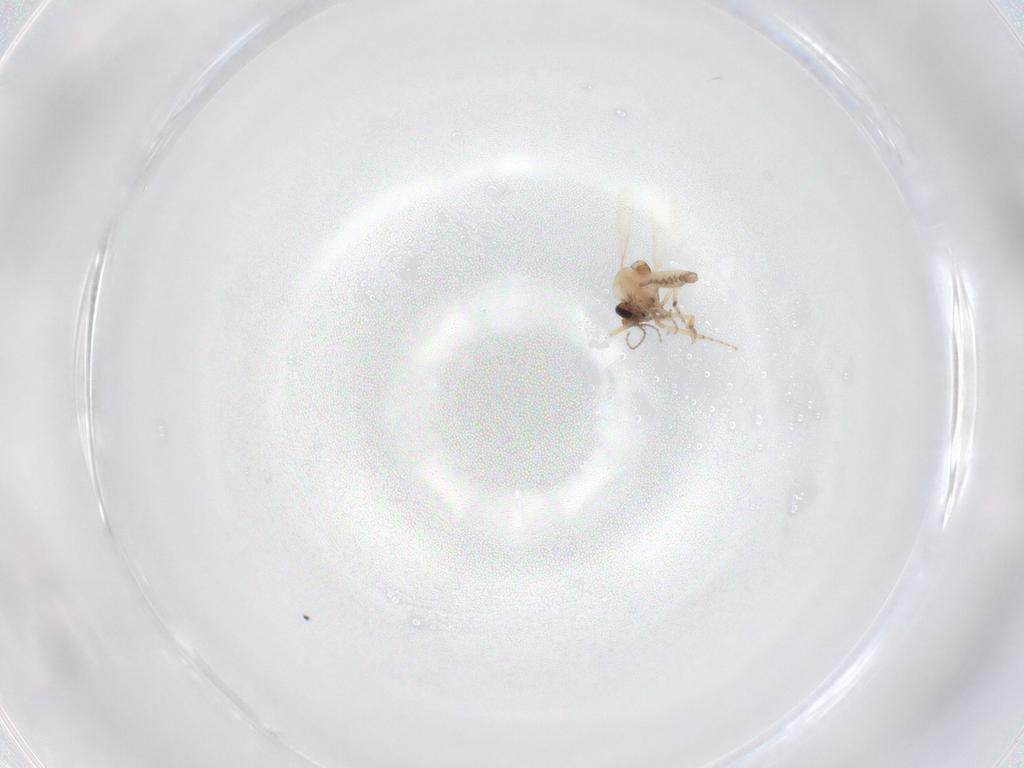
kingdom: Animalia
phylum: Arthropoda
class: Insecta
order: Diptera
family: Ceratopogonidae
